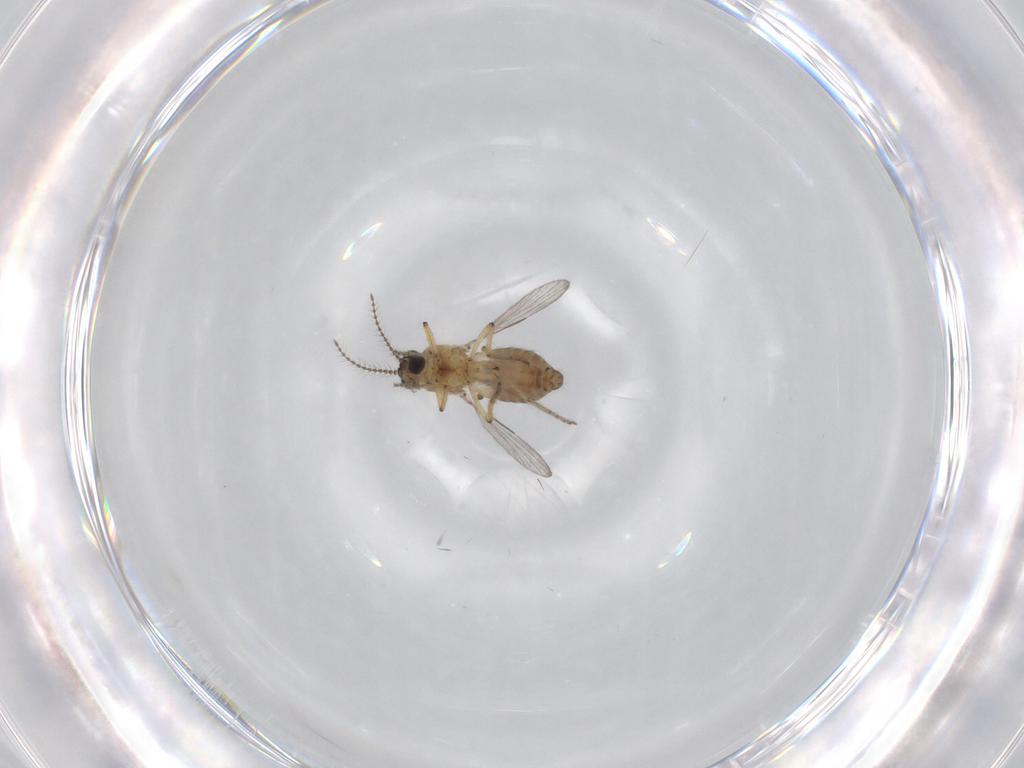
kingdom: Animalia
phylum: Arthropoda
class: Insecta
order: Diptera
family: Ceratopogonidae
